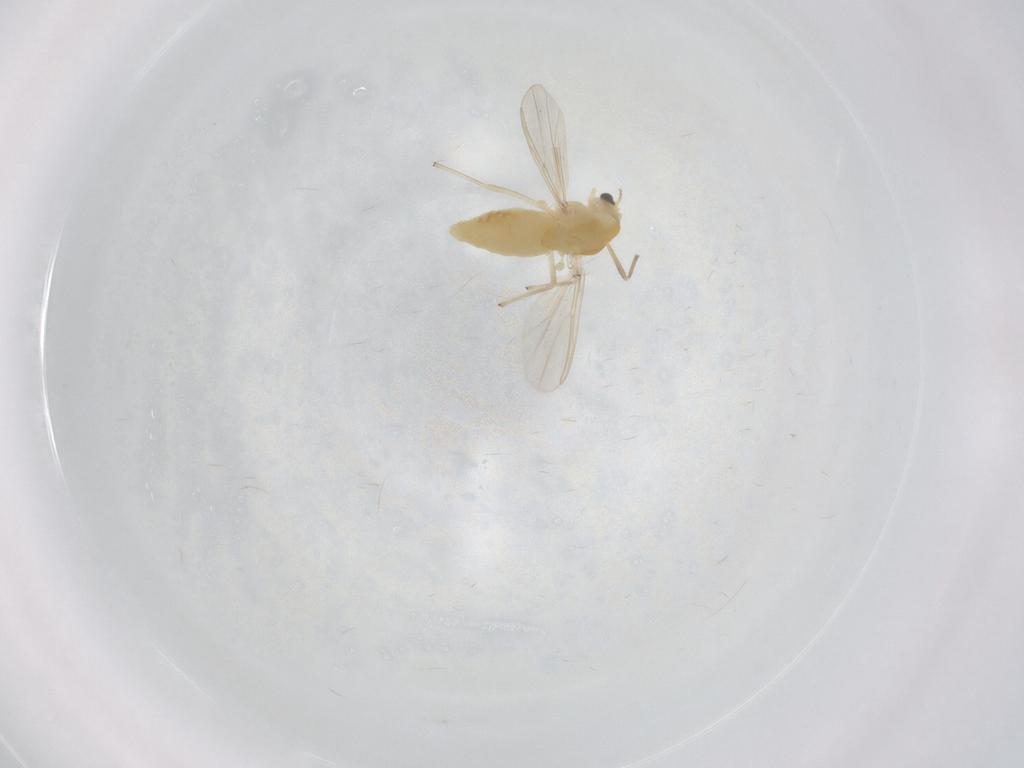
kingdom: Animalia
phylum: Arthropoda
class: Insecta
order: Diptera
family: Chironomidae
